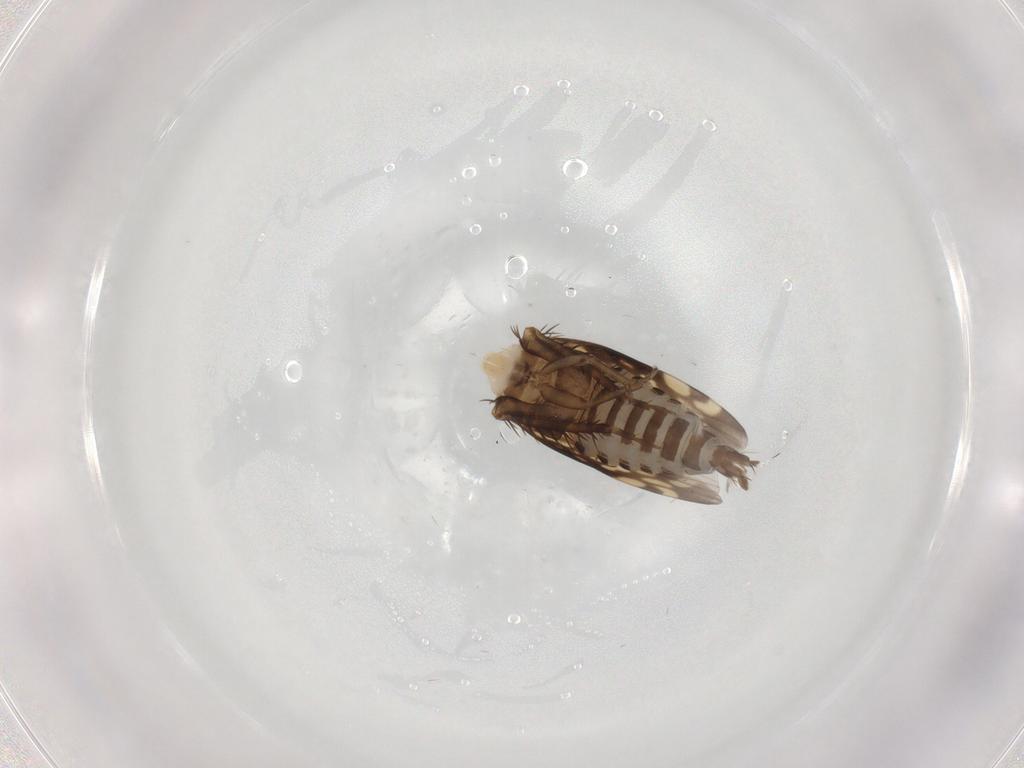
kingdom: Animalia
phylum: Arthropoda
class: Insecta
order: Hemiptera
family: Cicadellidae
